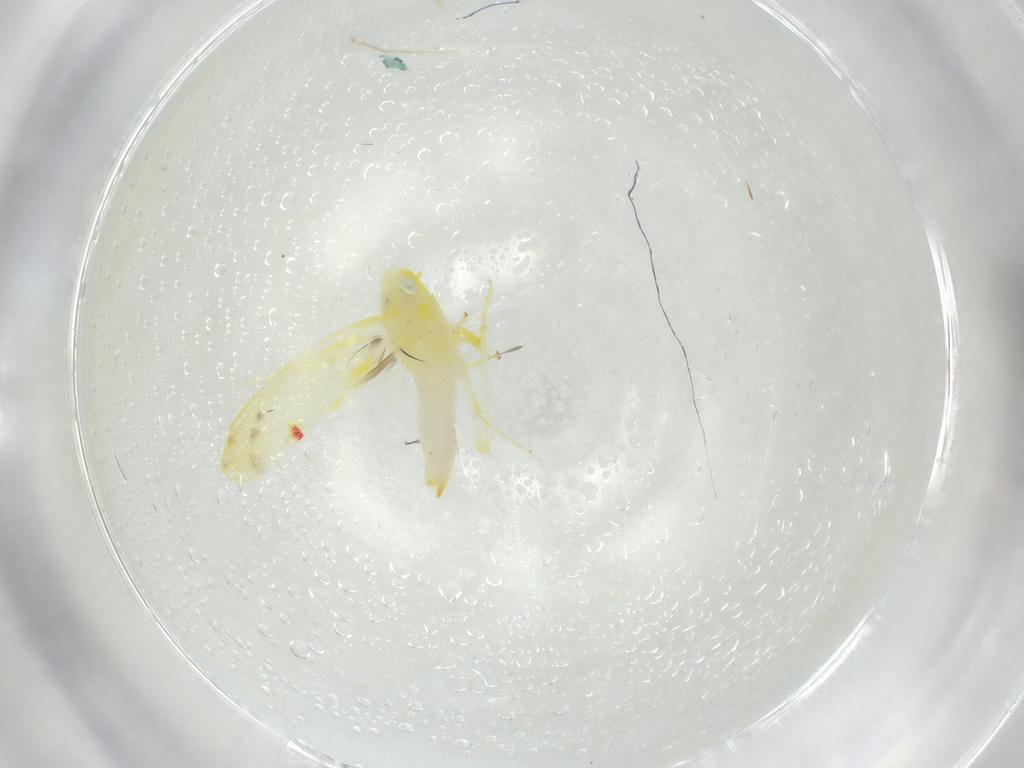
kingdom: Animalia
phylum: Arthropoda
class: Insecta
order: Hemiptera
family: Cicadellidae
